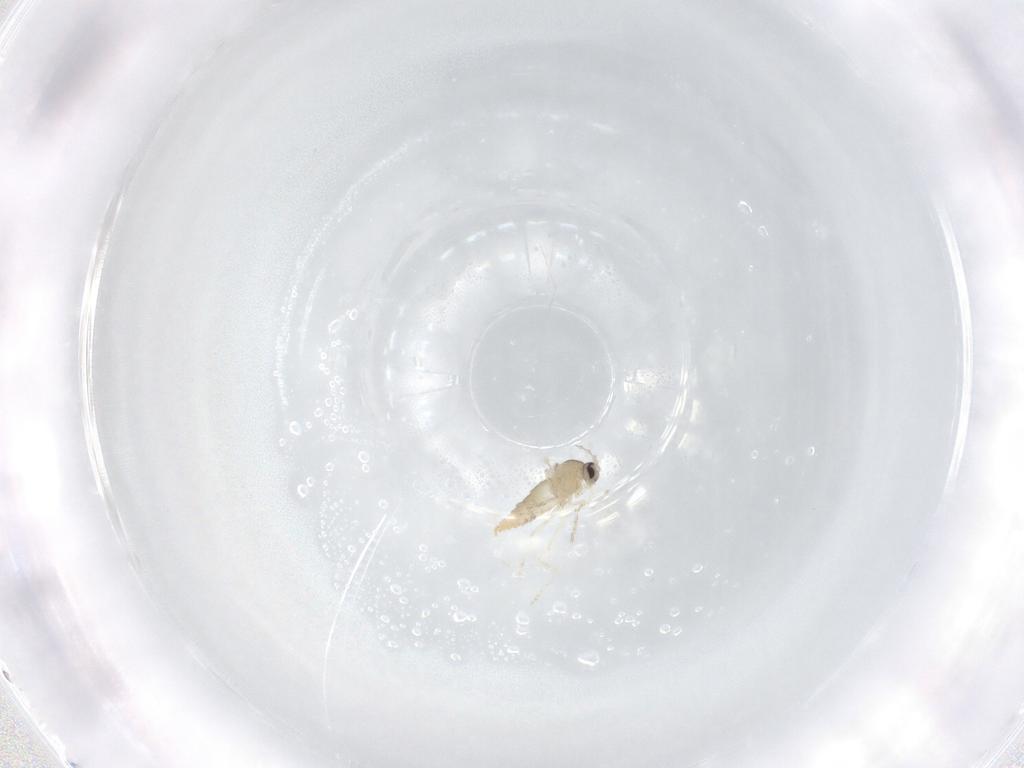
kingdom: Animalia
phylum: Arthropoda
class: Insecta
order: Diptera
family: Cecidomyiidae
